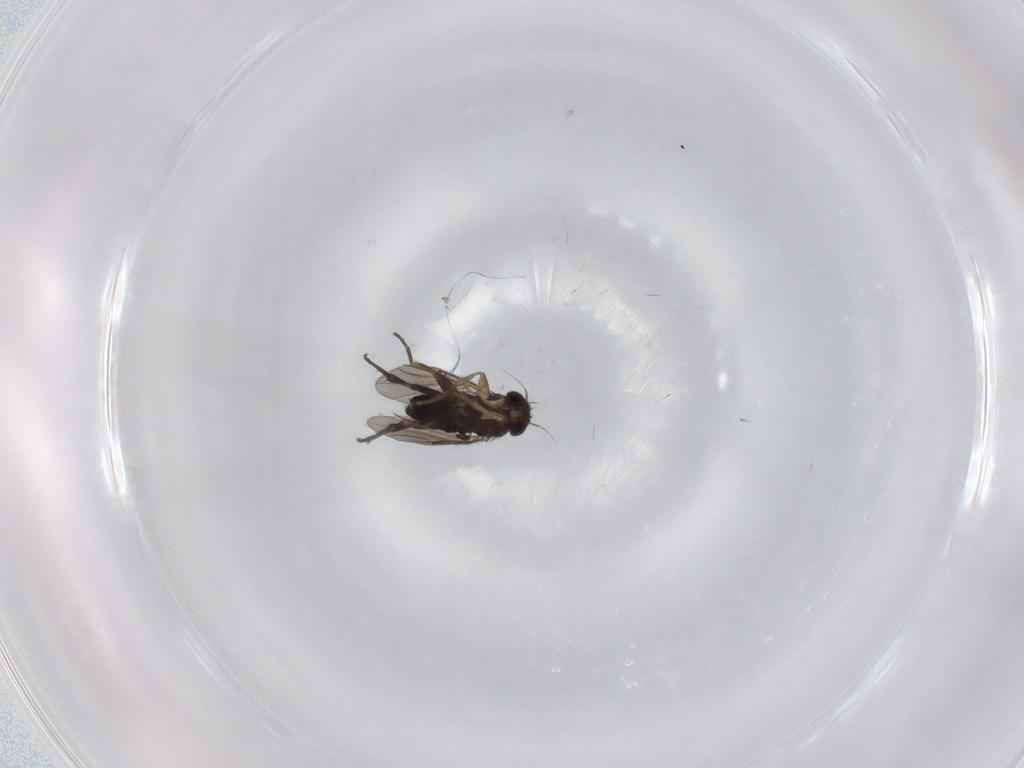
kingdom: Animalia
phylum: Arthropoda
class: Insecta
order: Diptera
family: Phoridae
